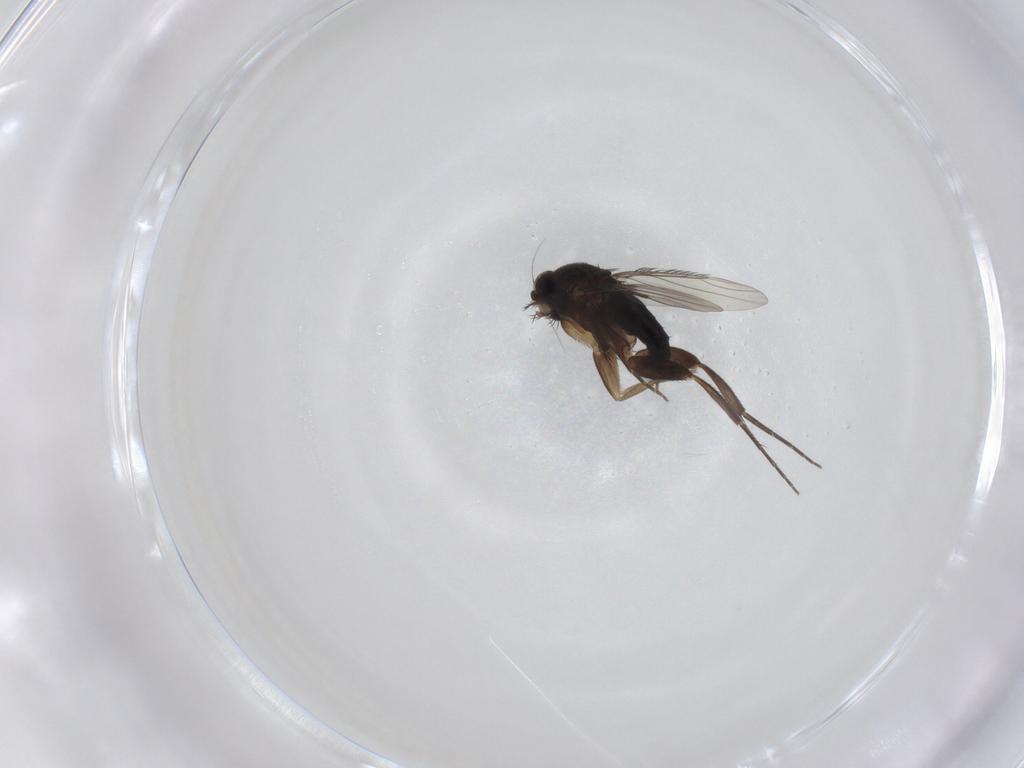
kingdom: Animalia
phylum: Arthropoda
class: Insecta
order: Diptera
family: Phoridae
